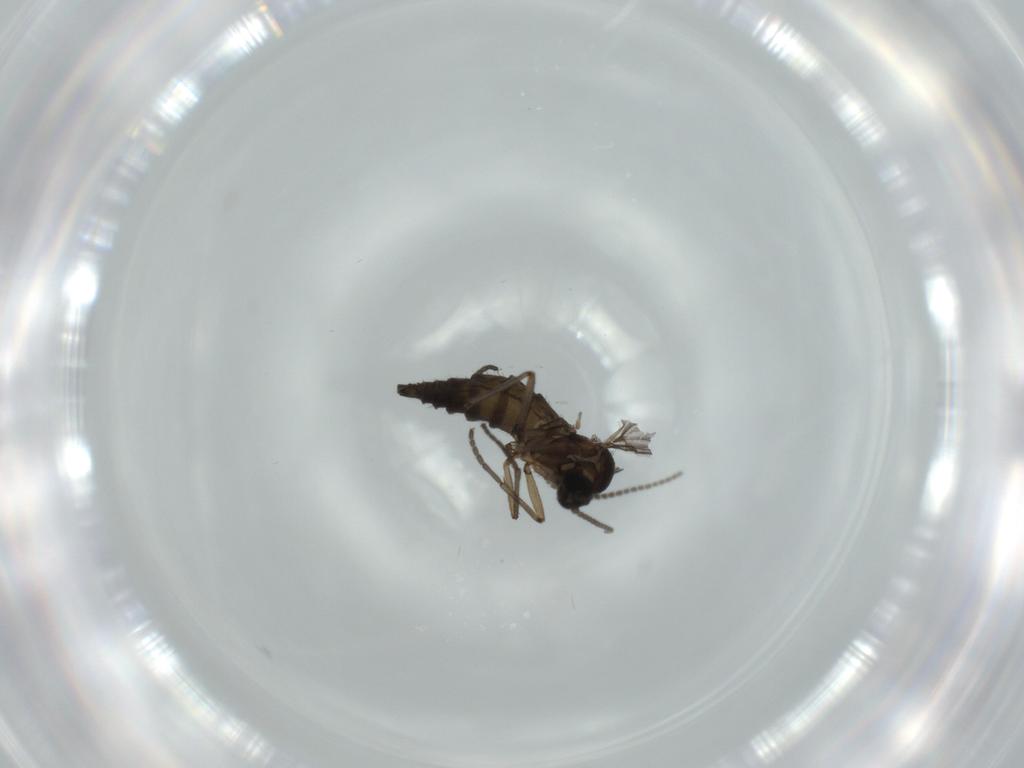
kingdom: Animalia
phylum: Arthropoda
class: Insecta
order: Diptera
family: Sciaridae
